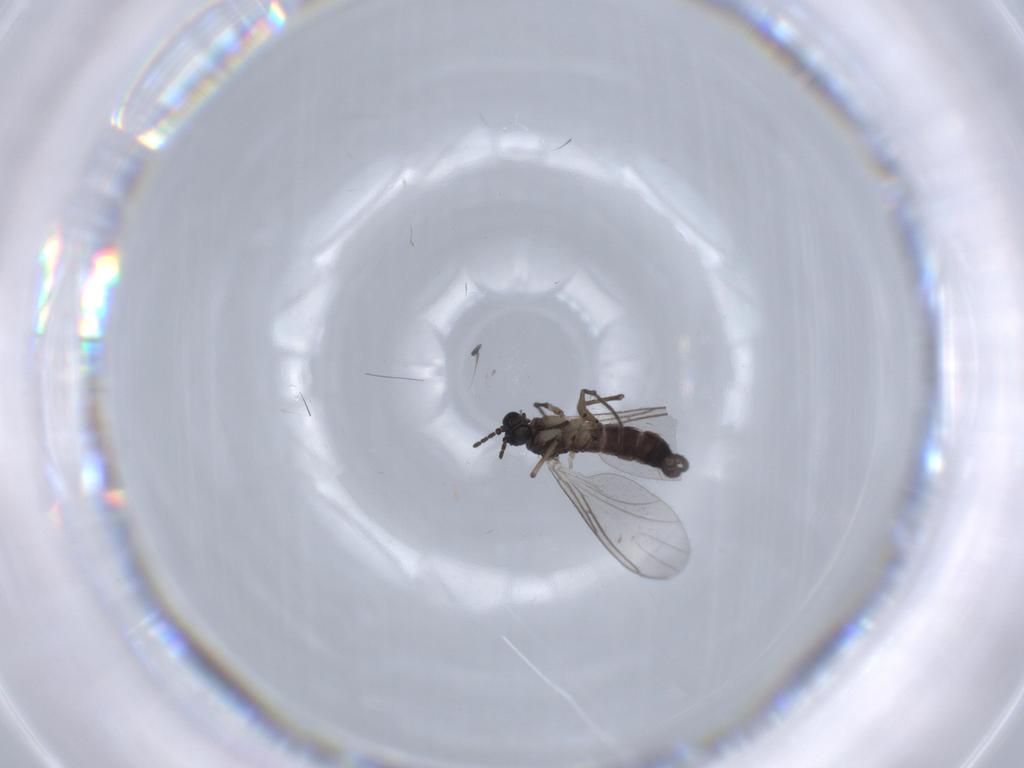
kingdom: Animalia
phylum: Arthropoda
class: Insecta
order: Diptera
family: Sciaridae
